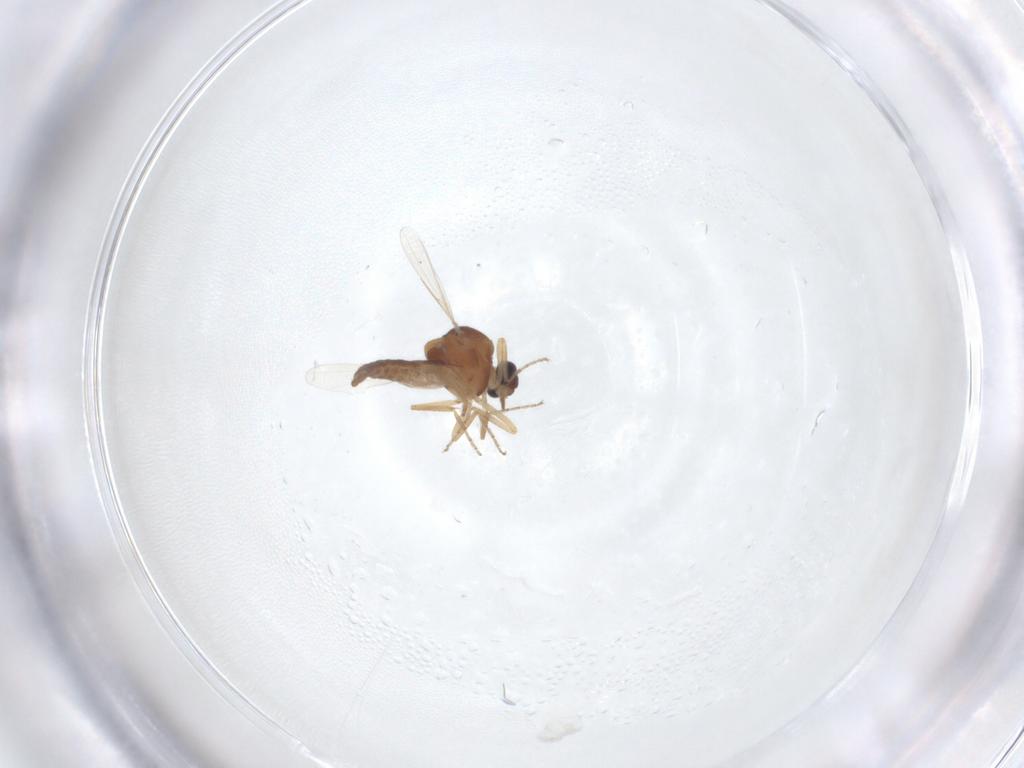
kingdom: Animalia
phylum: Arthropoda
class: Insecta
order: Diptera
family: Ceratopogonidae
